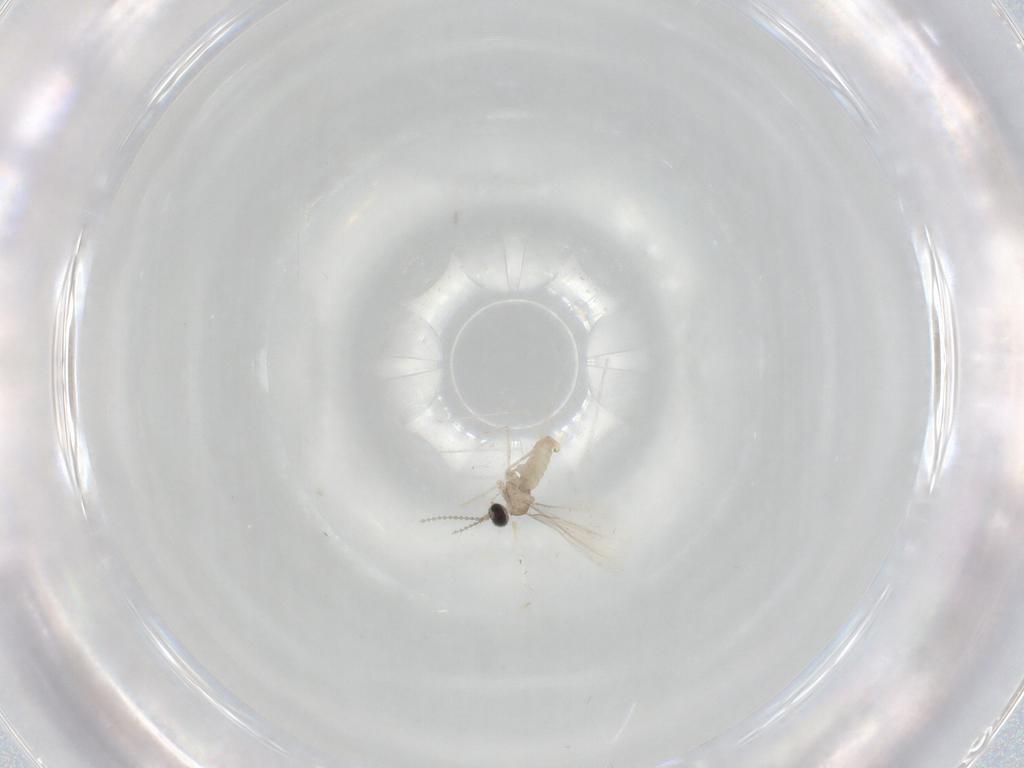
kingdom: Animalia
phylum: Arthropoda
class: Insecta
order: Diptera
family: Cecidomyiidae
